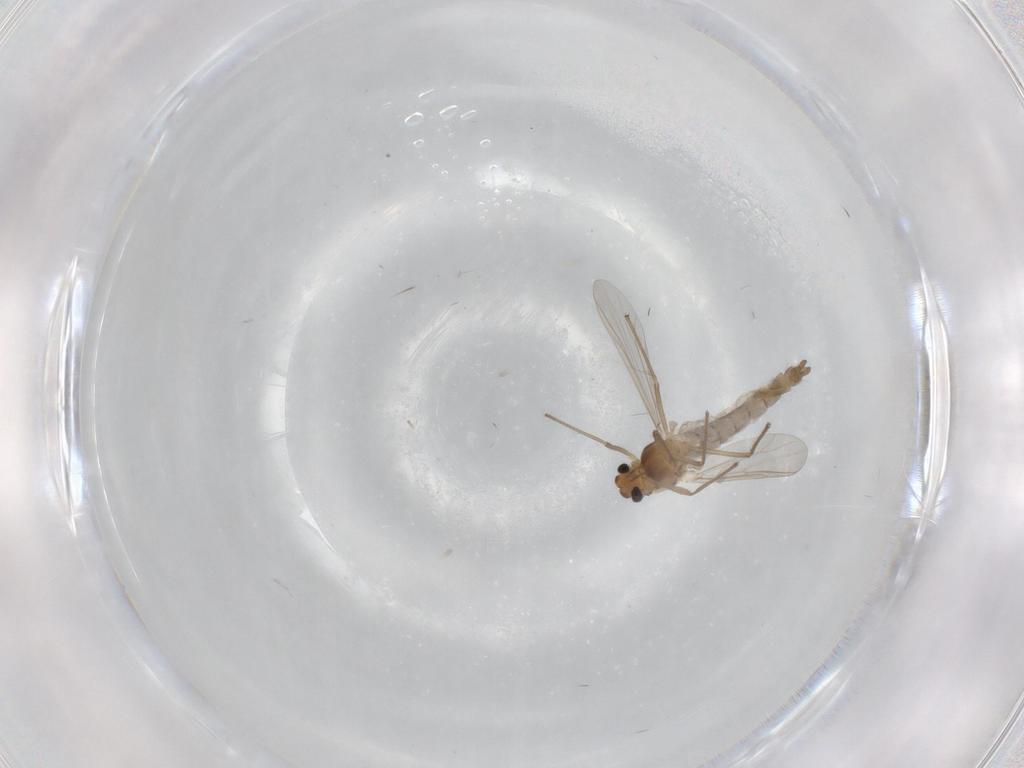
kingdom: Animalia
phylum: Arthropoda
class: Insecta
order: Diptera
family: Chironomidae
